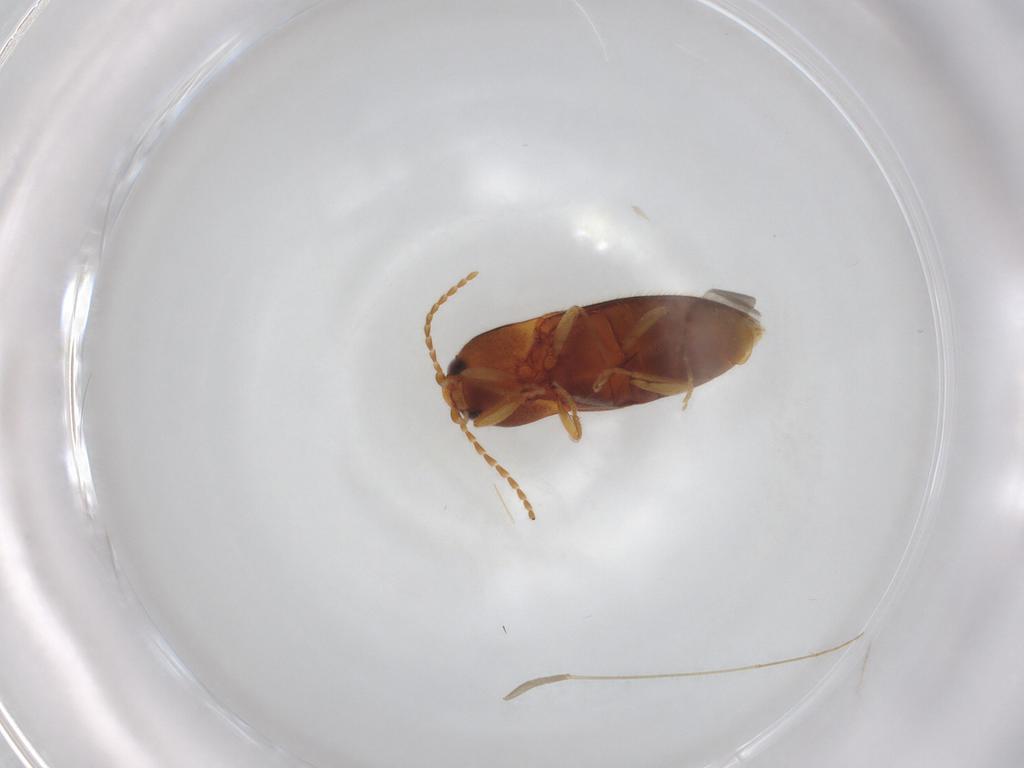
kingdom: Animalia
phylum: Arthropoda
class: Insecta
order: Coleoptera
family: Elateridae
